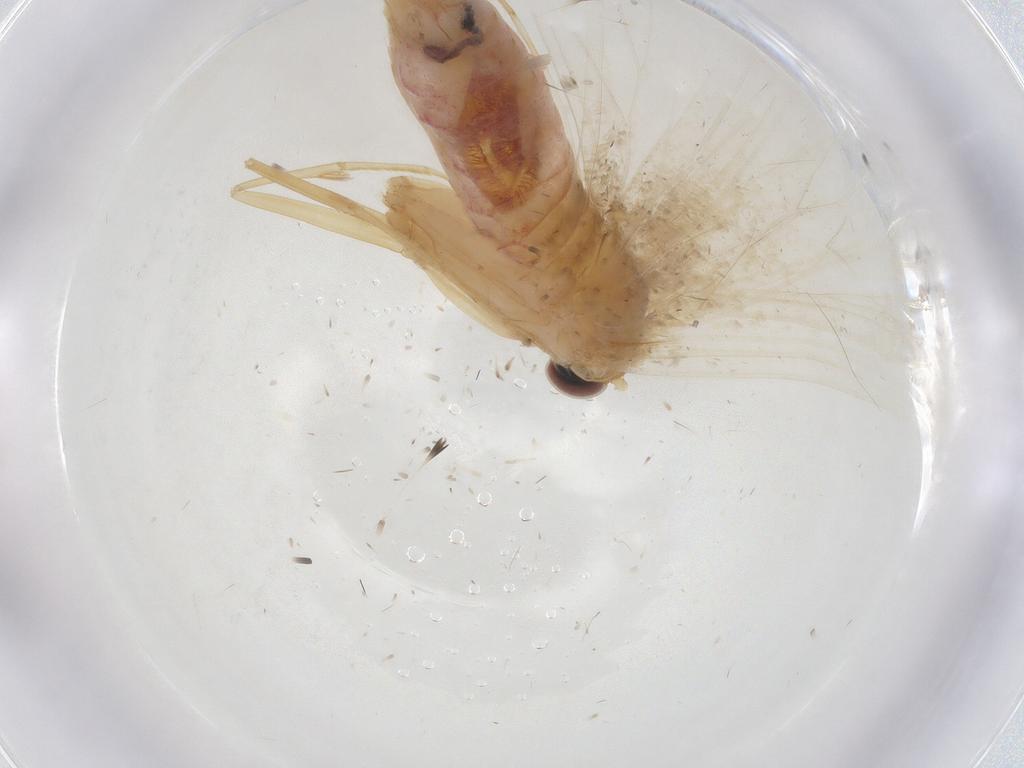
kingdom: Animalia
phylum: Arthropoda
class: Insecta
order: Lepidoptera
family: Geometridae
